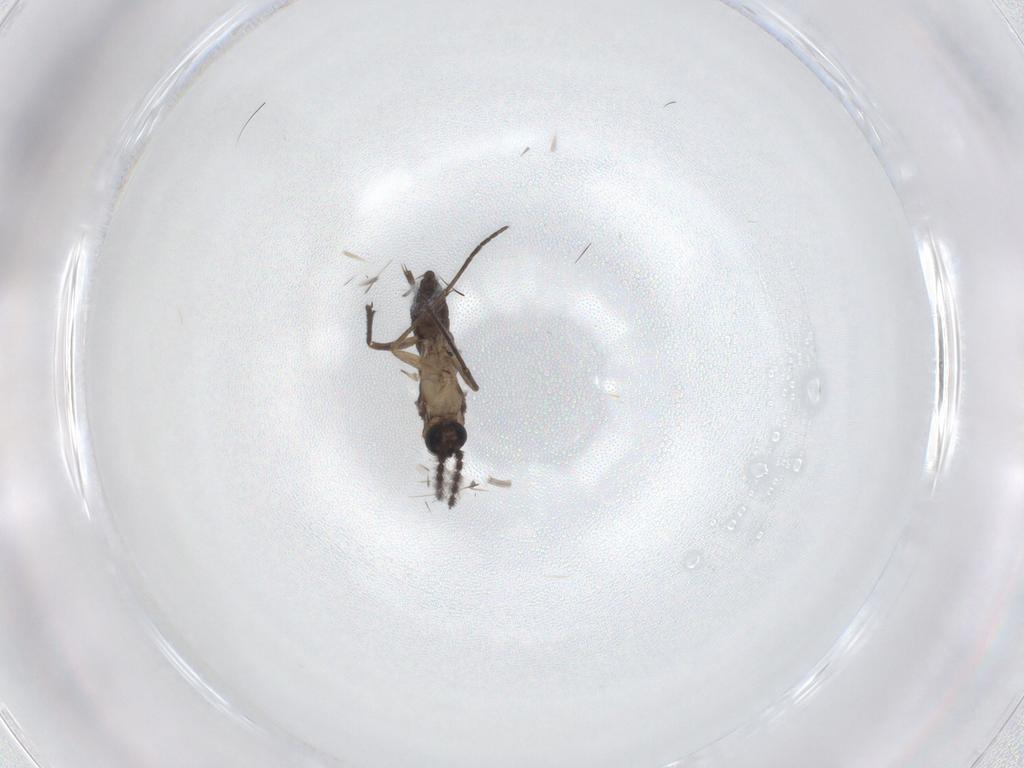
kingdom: Animalia
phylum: Arthropoda
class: Insecta
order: Diptera
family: Sciaridae
